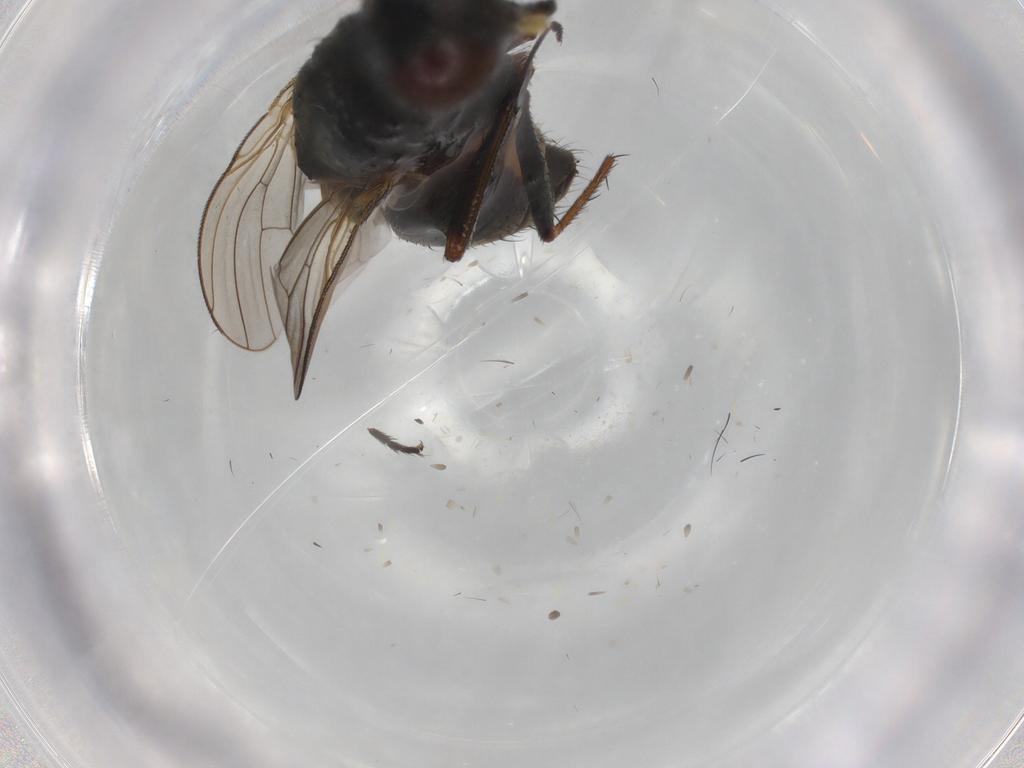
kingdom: Animalia
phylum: Arthropoda
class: Insecta
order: Diptera
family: Muscidae
